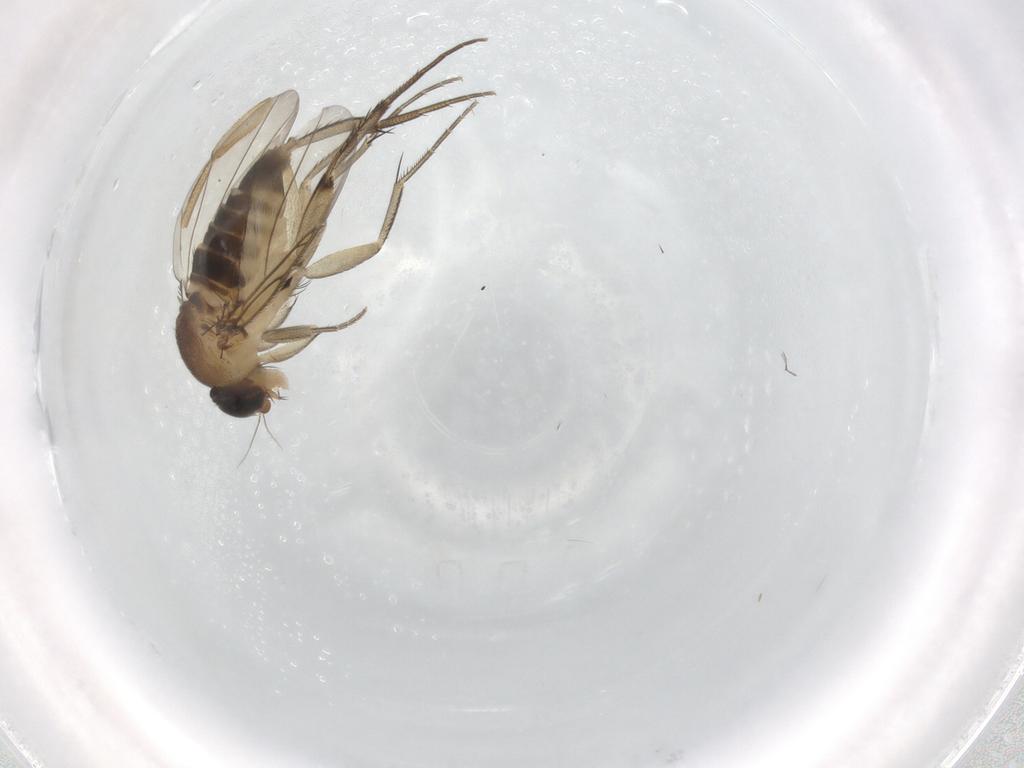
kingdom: Animalia
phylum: Arthropoda
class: Insecta
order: Diptera
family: Phoridae
